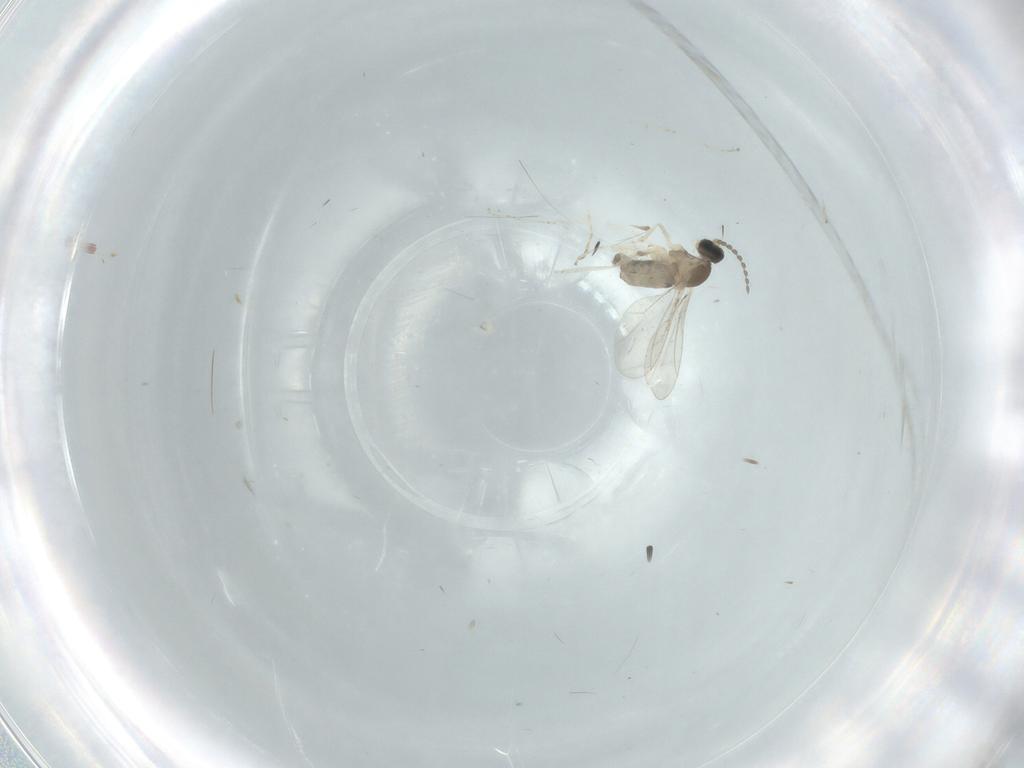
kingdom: Animalia
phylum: Arthropoda
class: Insecta
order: Diptera
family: Cecidomyiidae
